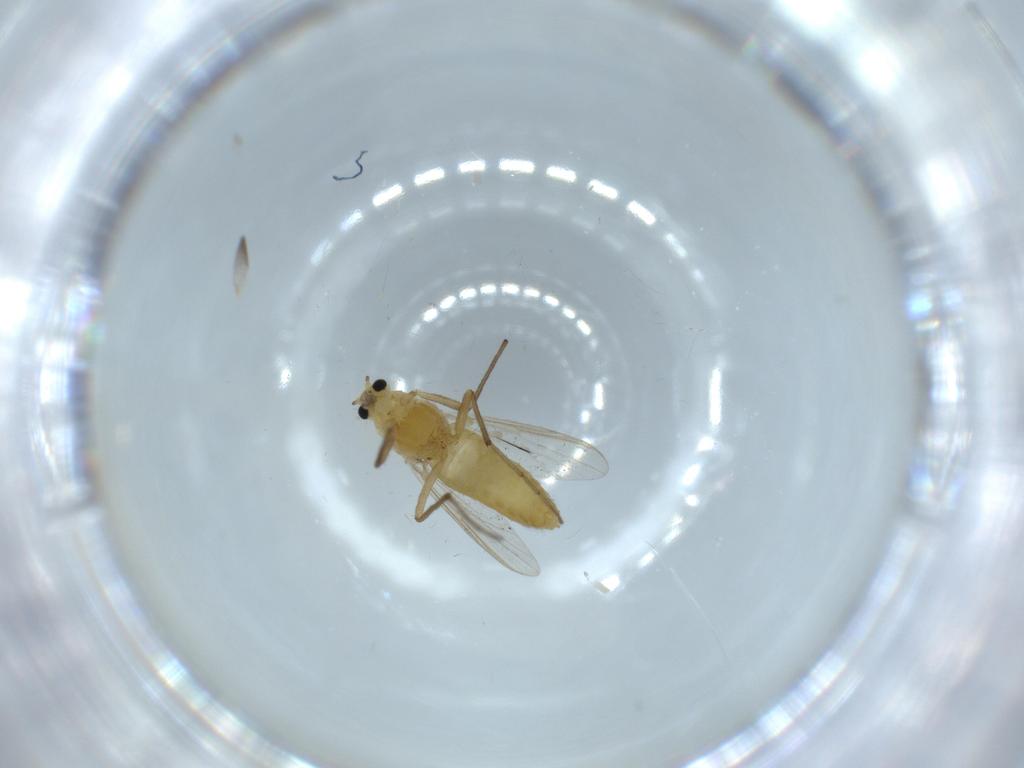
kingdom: Animalia
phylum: Arthropoda
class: Insecta
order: Diptera
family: Chironomidae
